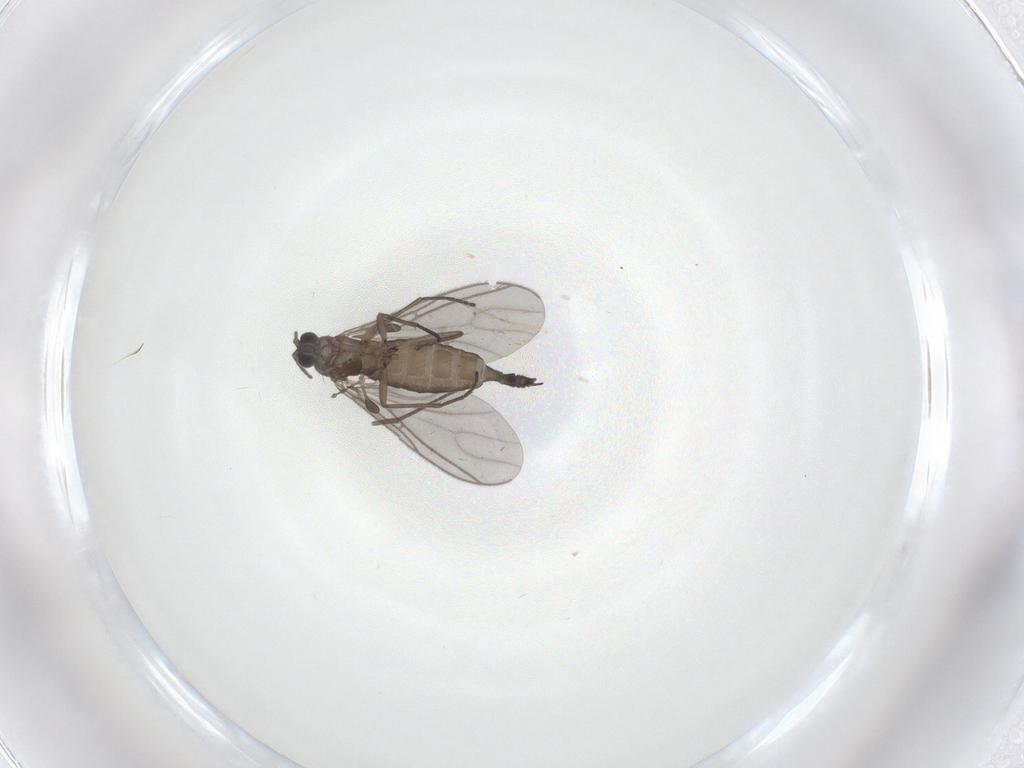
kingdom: Animalia
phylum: Arthropoda
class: Insecta
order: Diptera
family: Sciaridae
